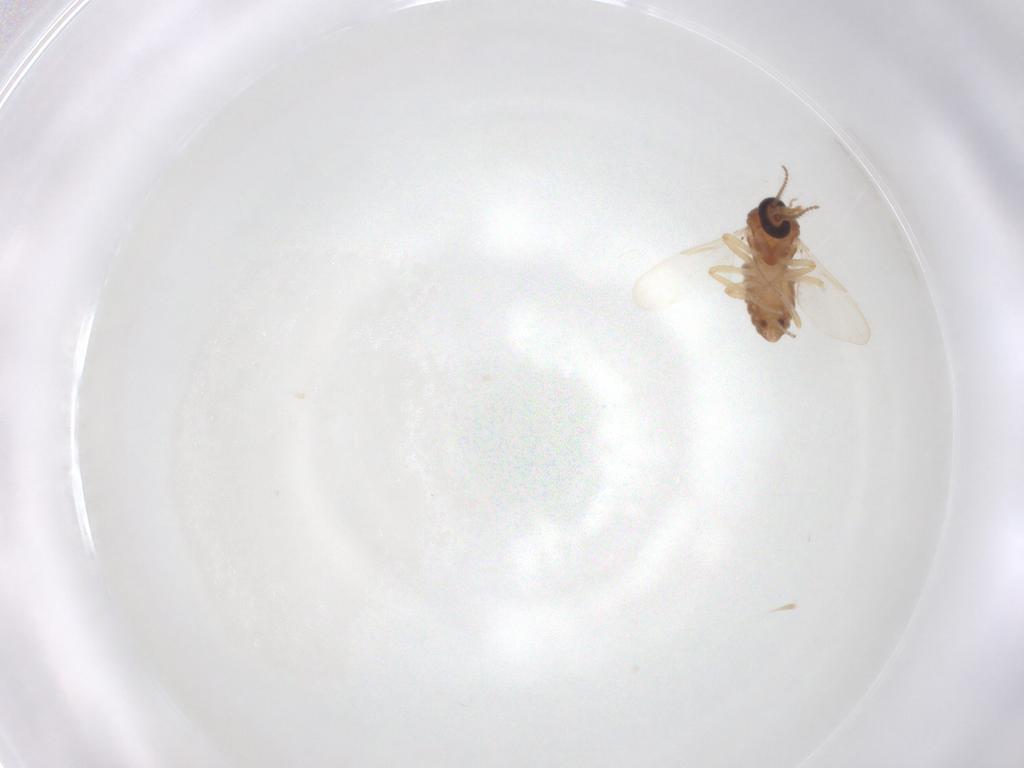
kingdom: Animalia
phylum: Arthropoda
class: Insecta
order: Diptera
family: Ceratopogonidae
